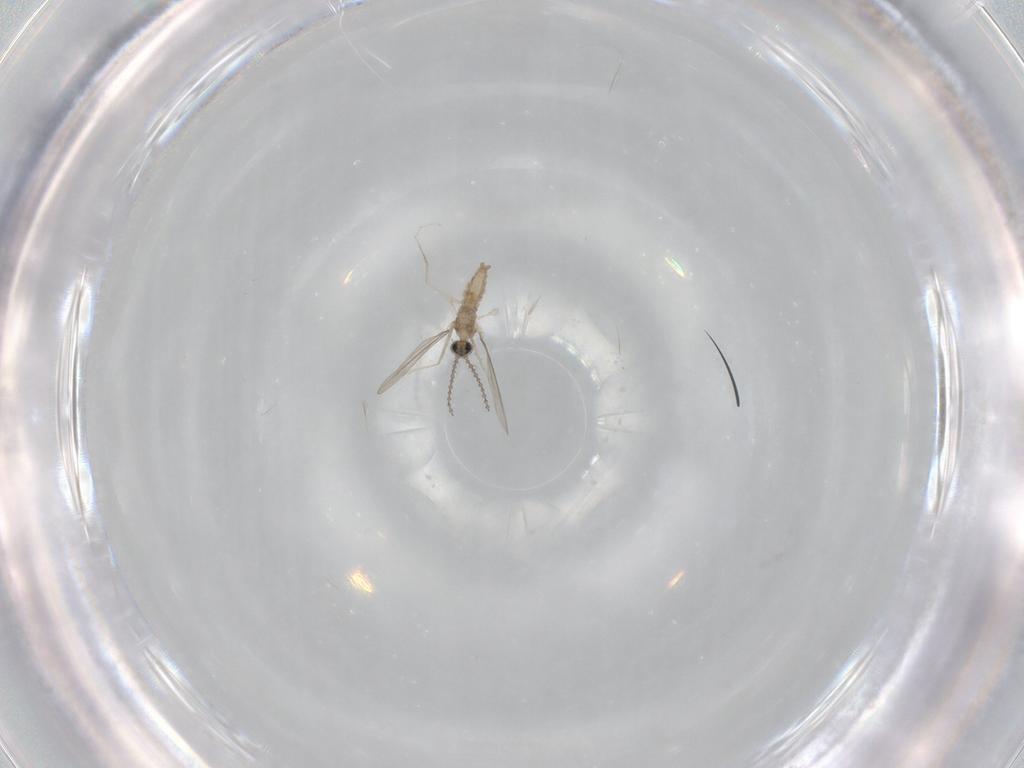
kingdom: Animalia
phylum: Arthropoda
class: Insecta
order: Diptera
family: Cecidomyiidae
